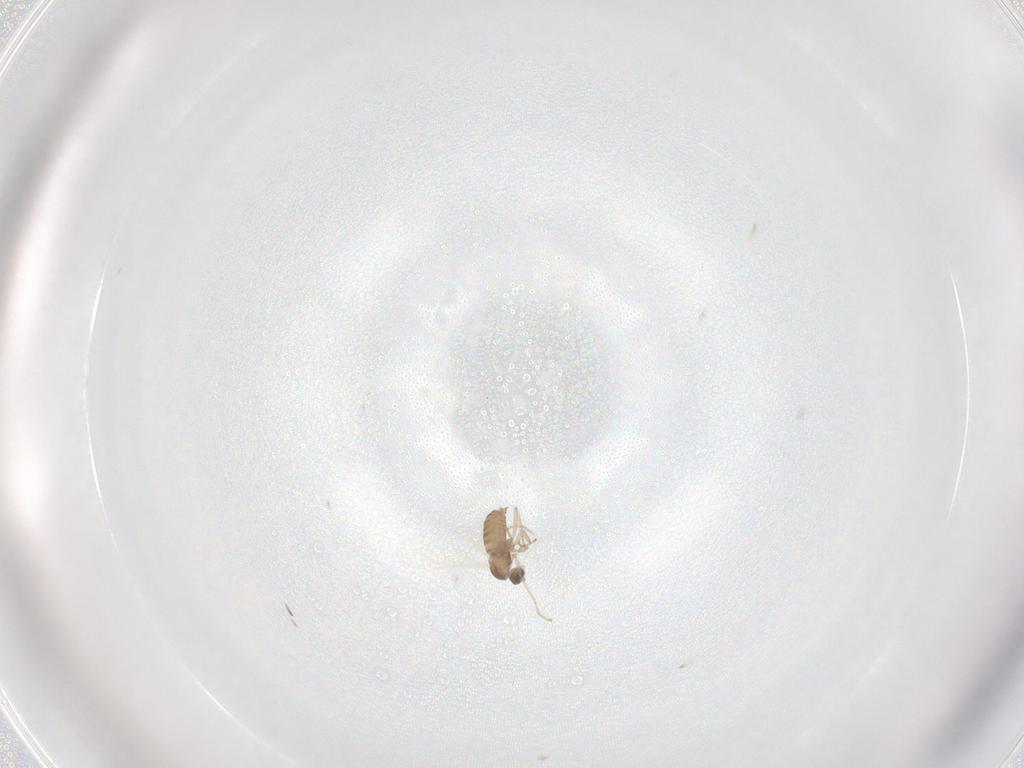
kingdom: Animalia
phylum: Arthropoda
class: Insecta
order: Diptera
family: Cecidomyiidae
